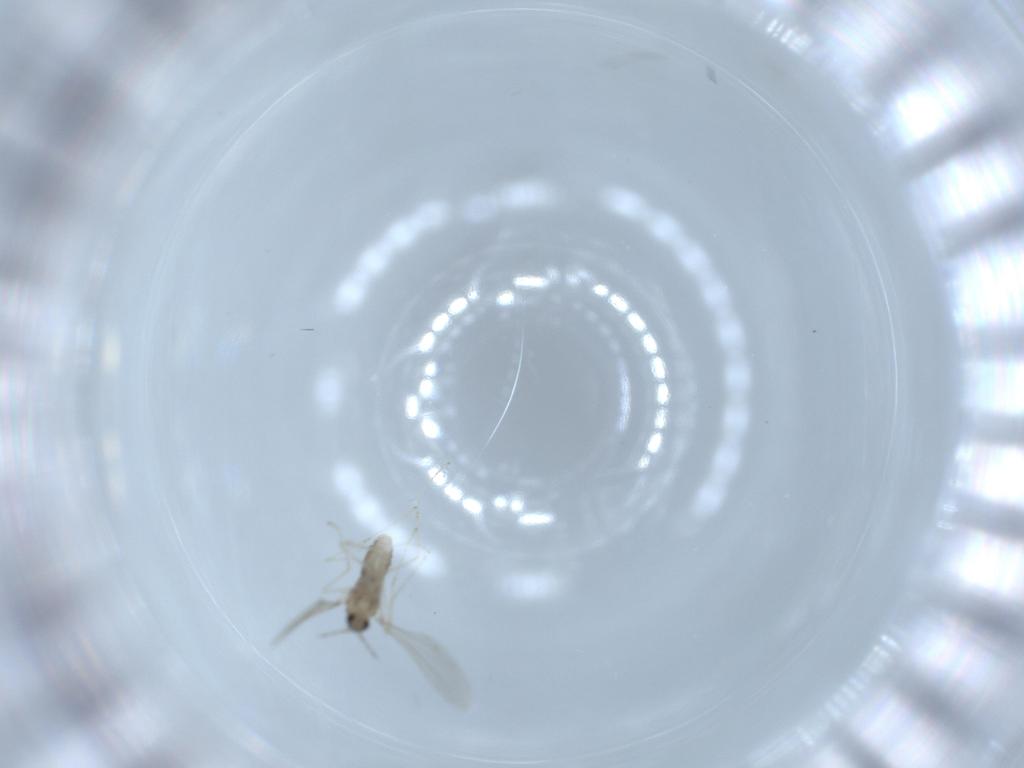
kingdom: Animalia
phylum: Arthropoda
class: Insecta
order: Diptera
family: Cecidomyiidae
